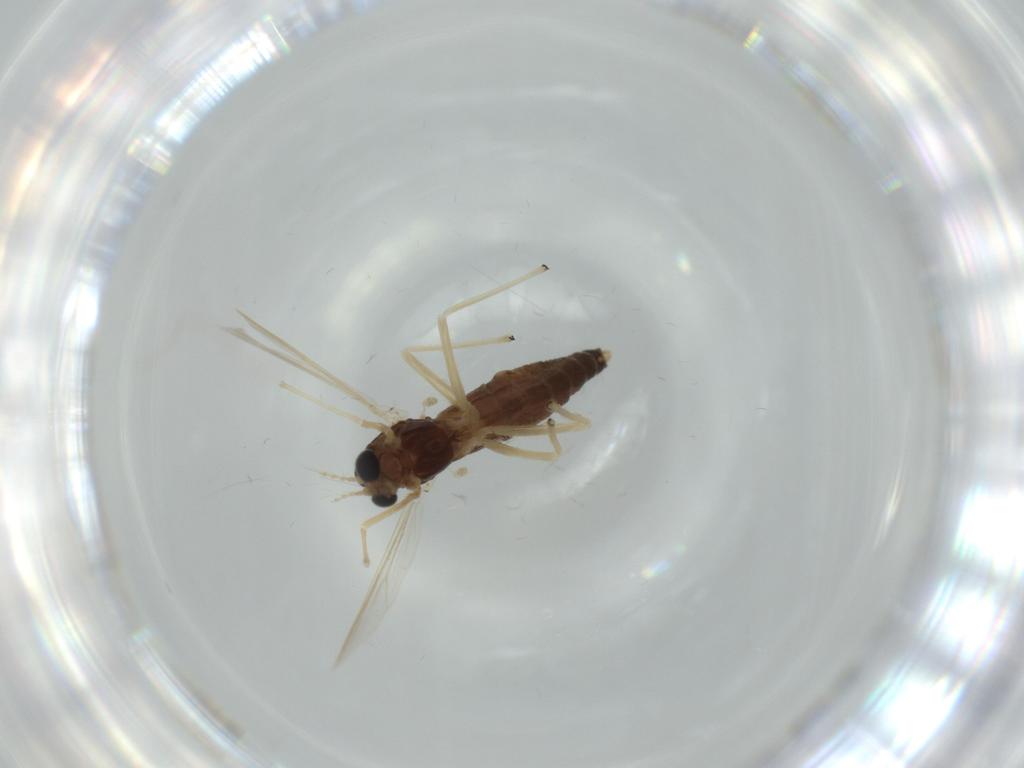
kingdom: Animalia
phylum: Arthropoda
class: Insecta
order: Diptera
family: Chironomidae
